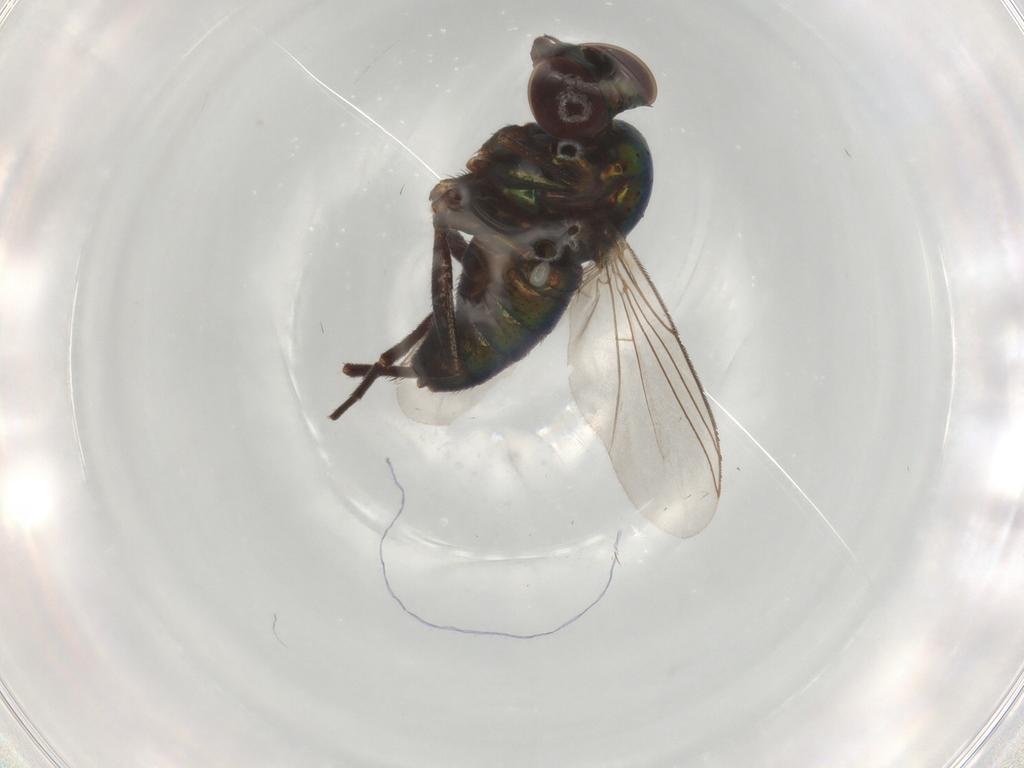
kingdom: Animalia
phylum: Arthropoda
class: Insecta
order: Diptera
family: Dolichopodidae
